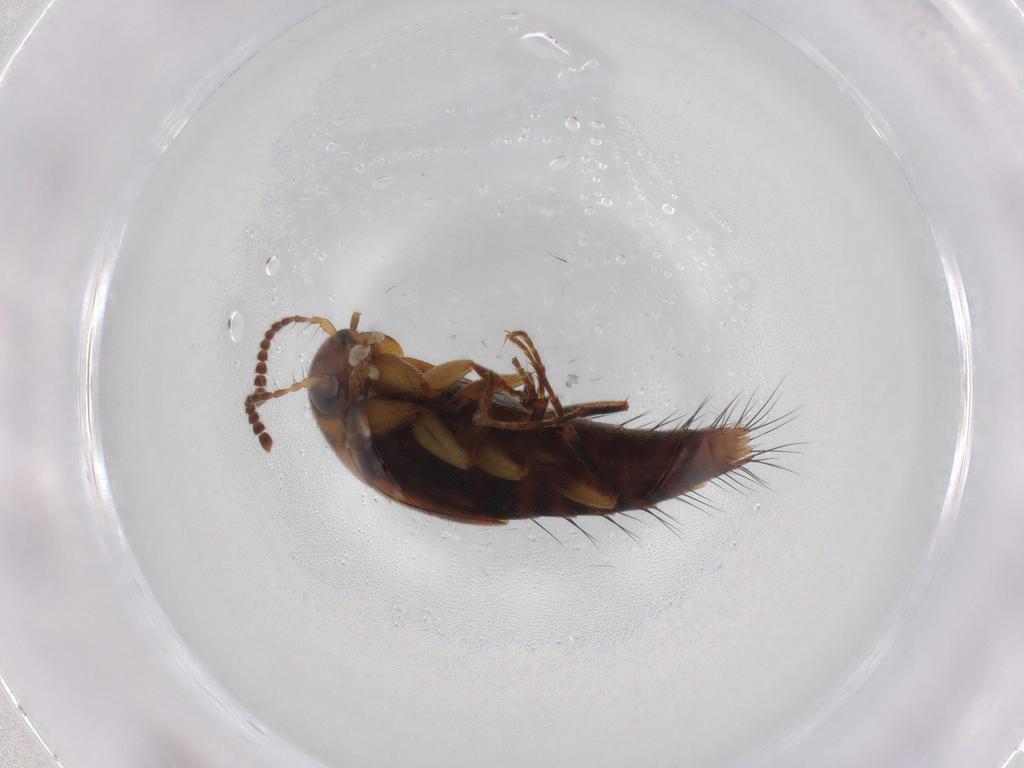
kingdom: Animalia
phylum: Arthropoda
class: Insecta
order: Coleoptera
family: Staphylinidae
